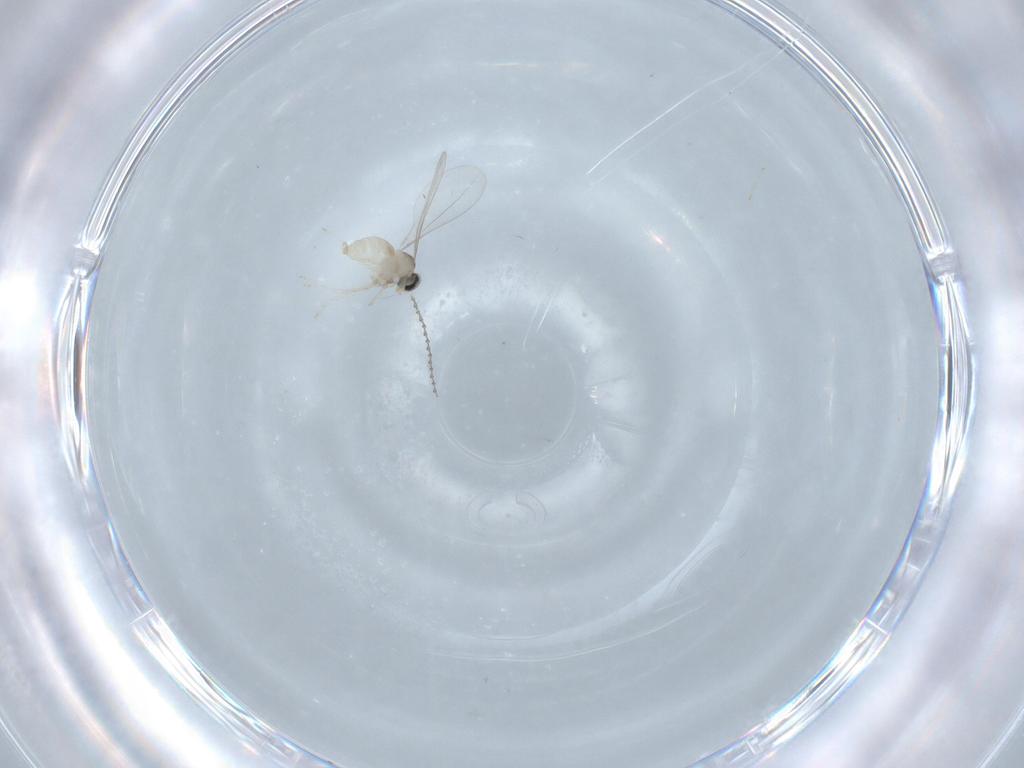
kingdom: Animalia
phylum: Arthropoda
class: Insecta
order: Diptera
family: Cecidomyiidae
